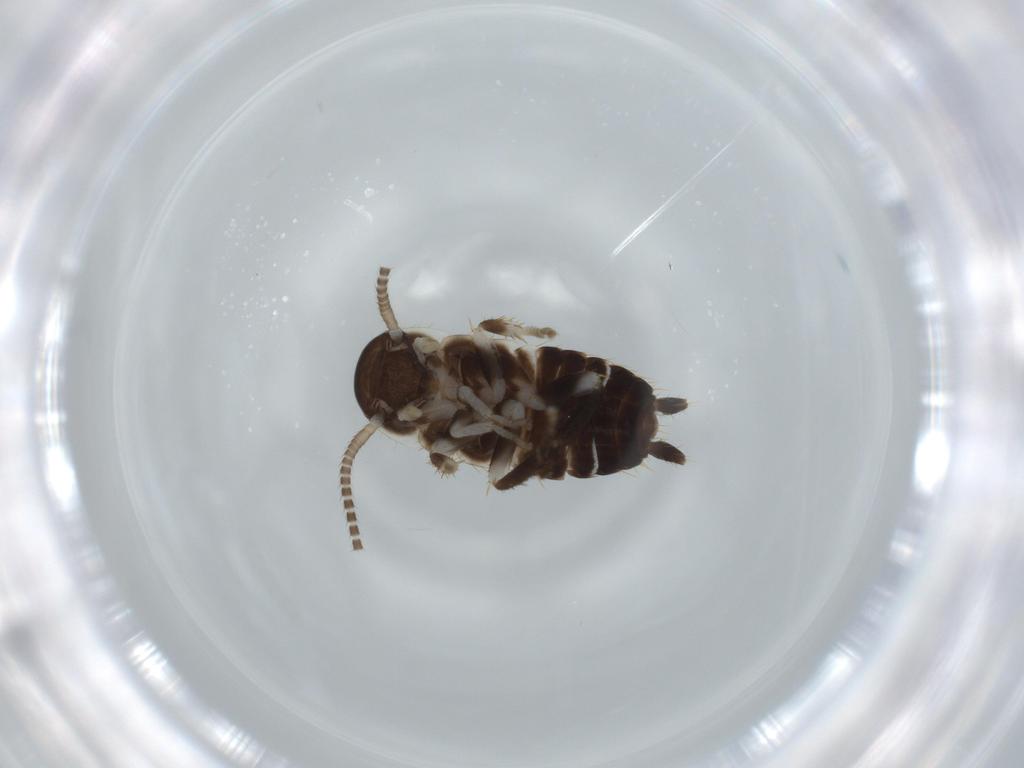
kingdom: Animalia
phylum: Arthropoda
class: Insecta
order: Blattodea
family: Ectobiidae
